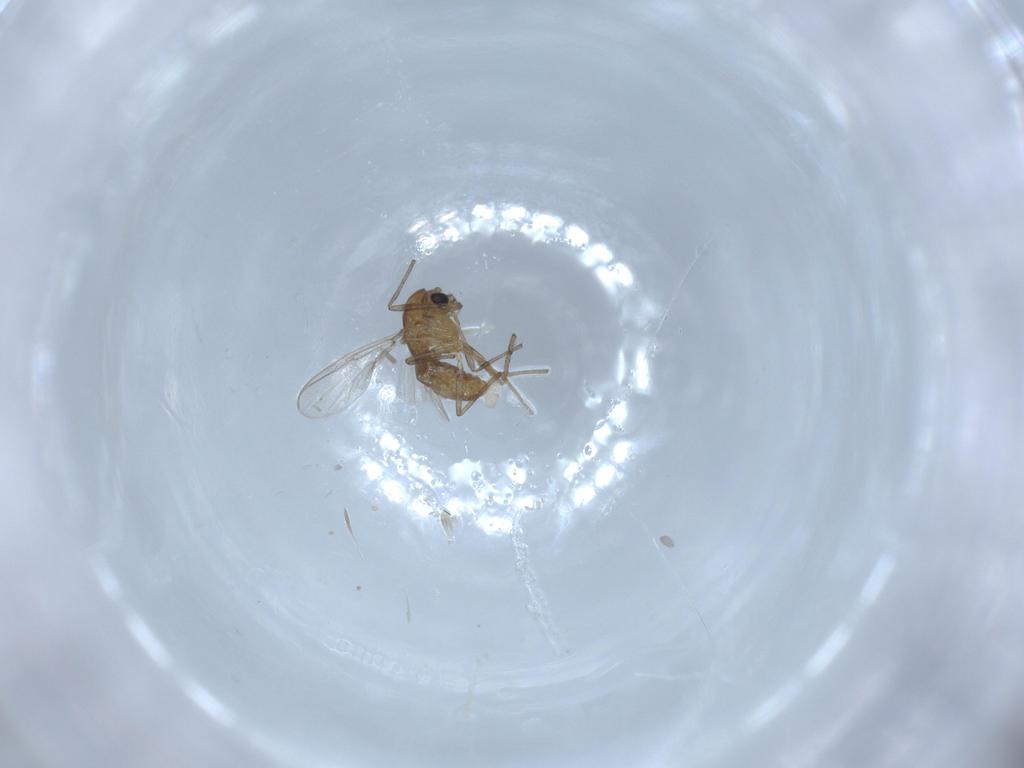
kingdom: Animalia
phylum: Arthropoda
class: Insecta
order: Diptera
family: Chironomidae
